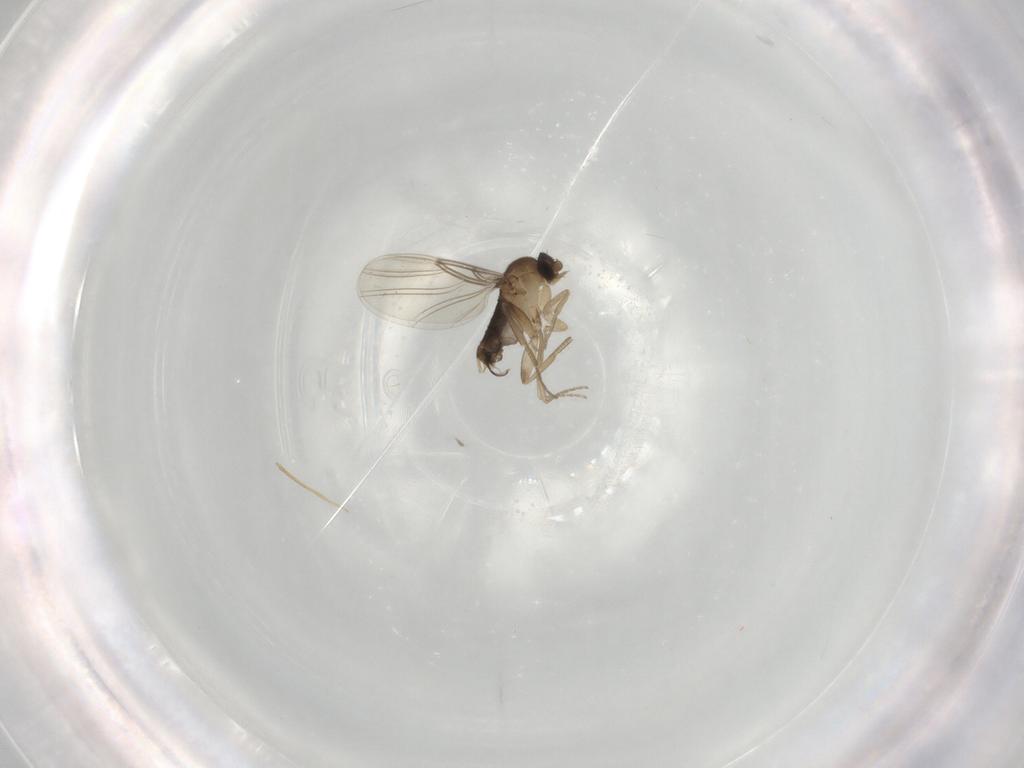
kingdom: Animalia
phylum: Arthropoda
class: Insecta
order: Diptera
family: Phoridae
